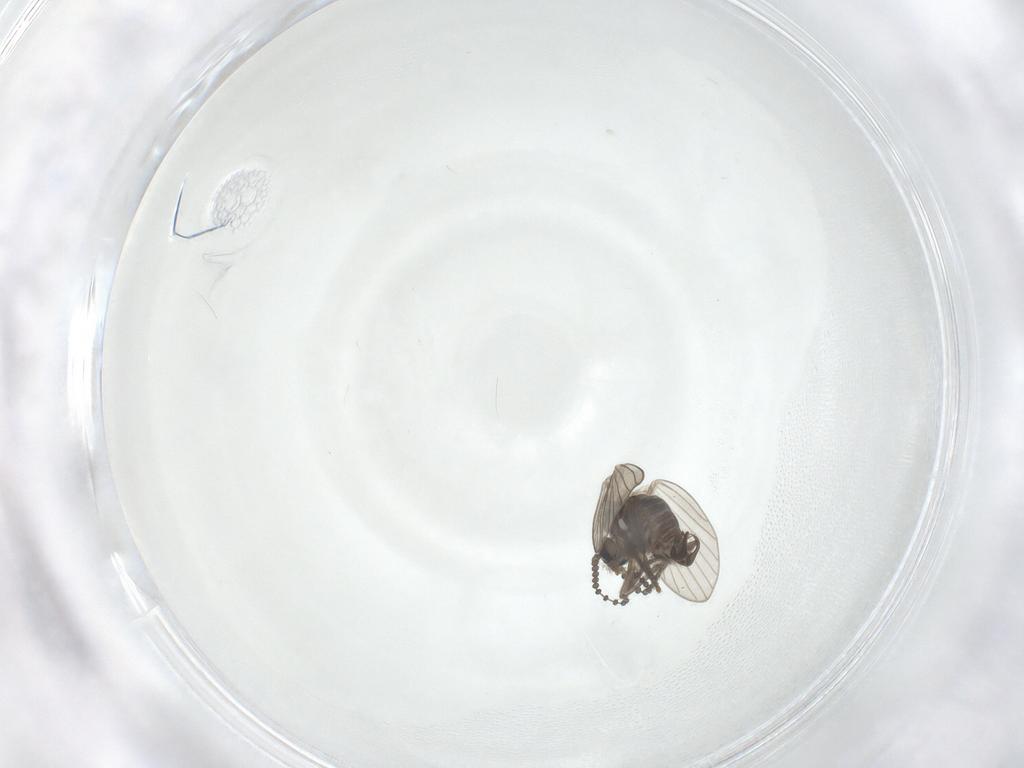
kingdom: Animalia
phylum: Arthropoda
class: Insecta
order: Diptera
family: Psychodidae
